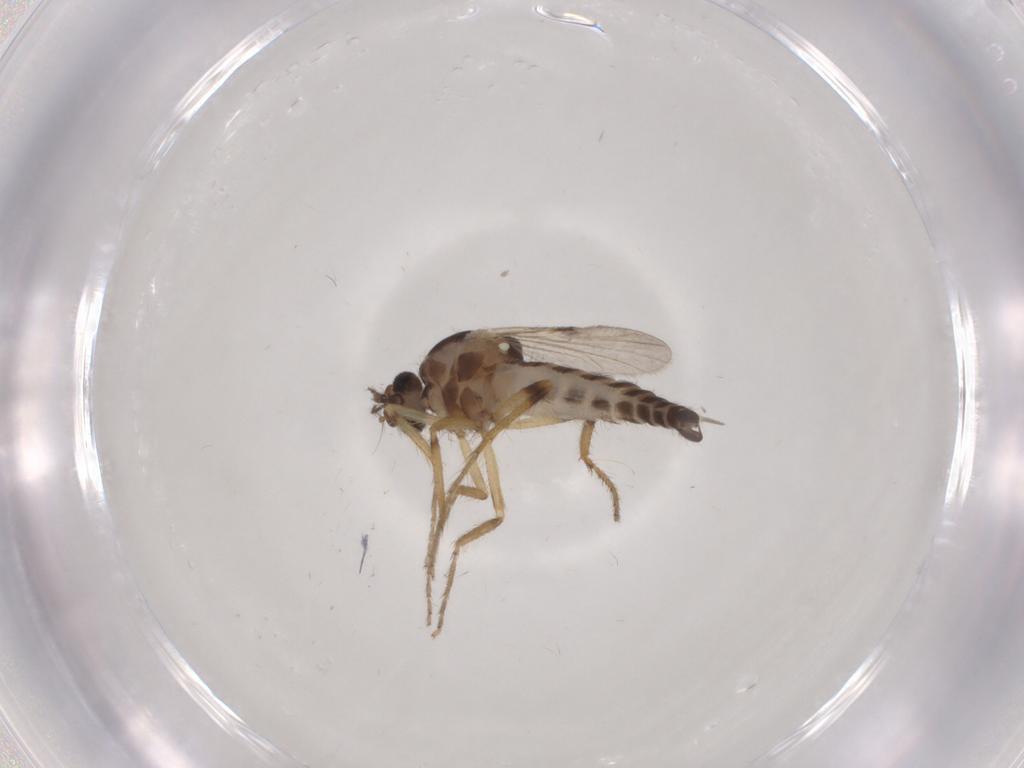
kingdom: Animalia
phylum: Arthropoda
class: Insecta
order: Diptera
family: Ceratopogonidae
